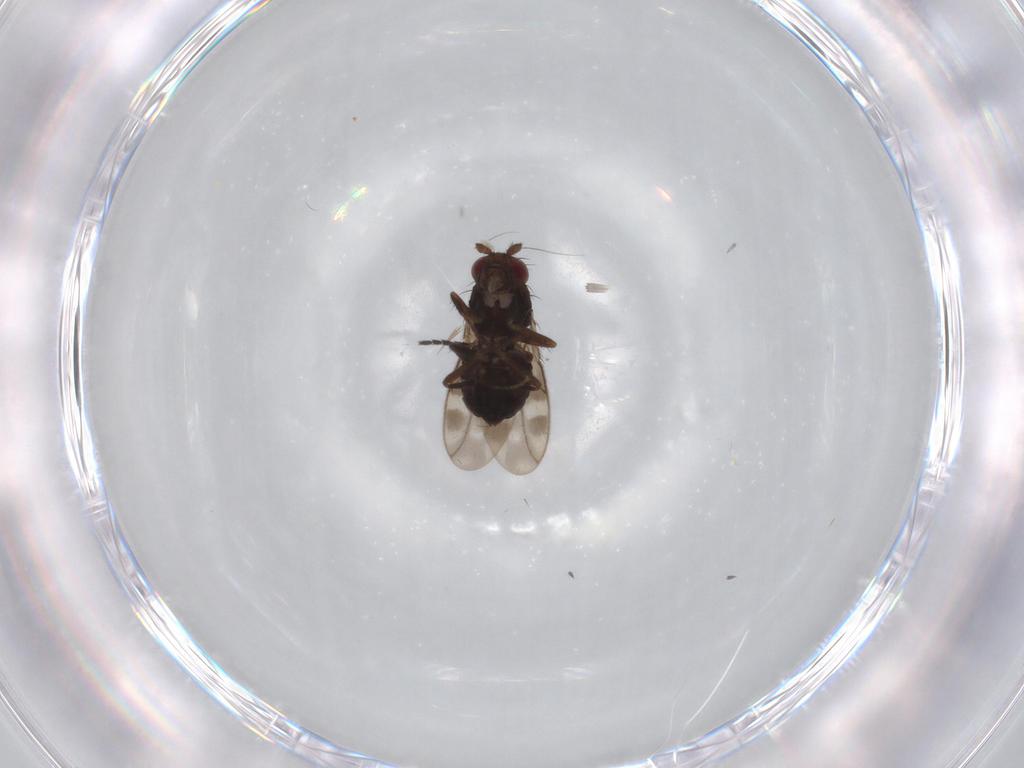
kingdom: Animalia
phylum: Arthropoda
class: Insecta
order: Diptera
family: Sphaeroceridae
